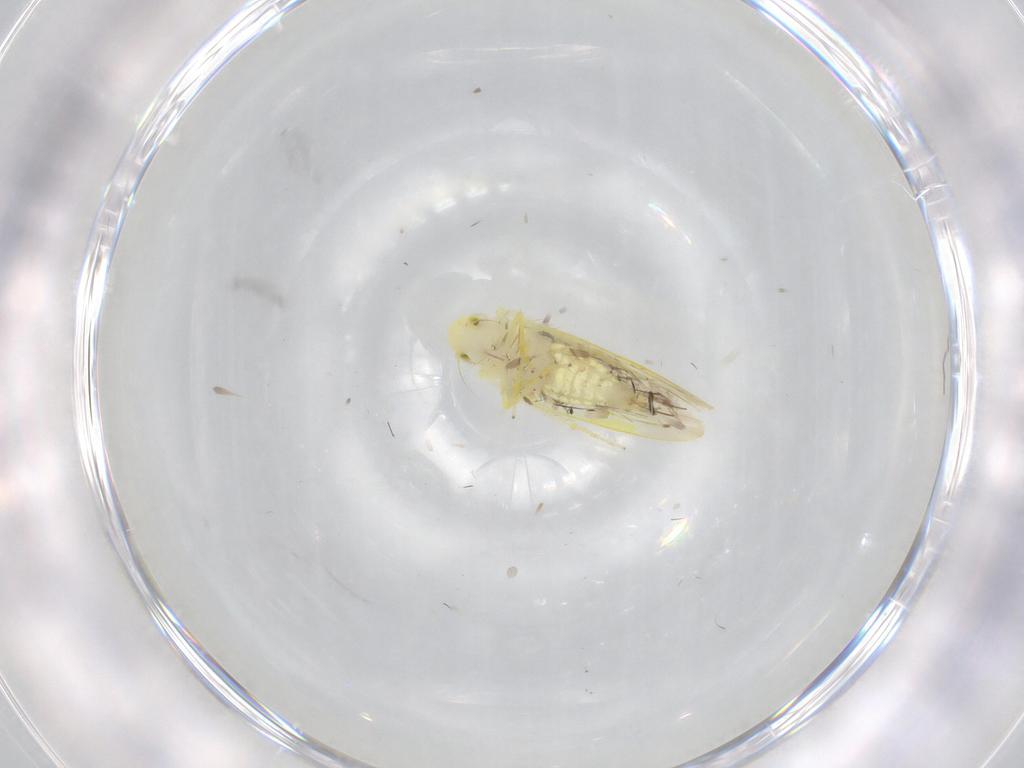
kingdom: Animalia
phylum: Arthropoda
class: Insecta
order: Hemiptera
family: Cicadellidae
